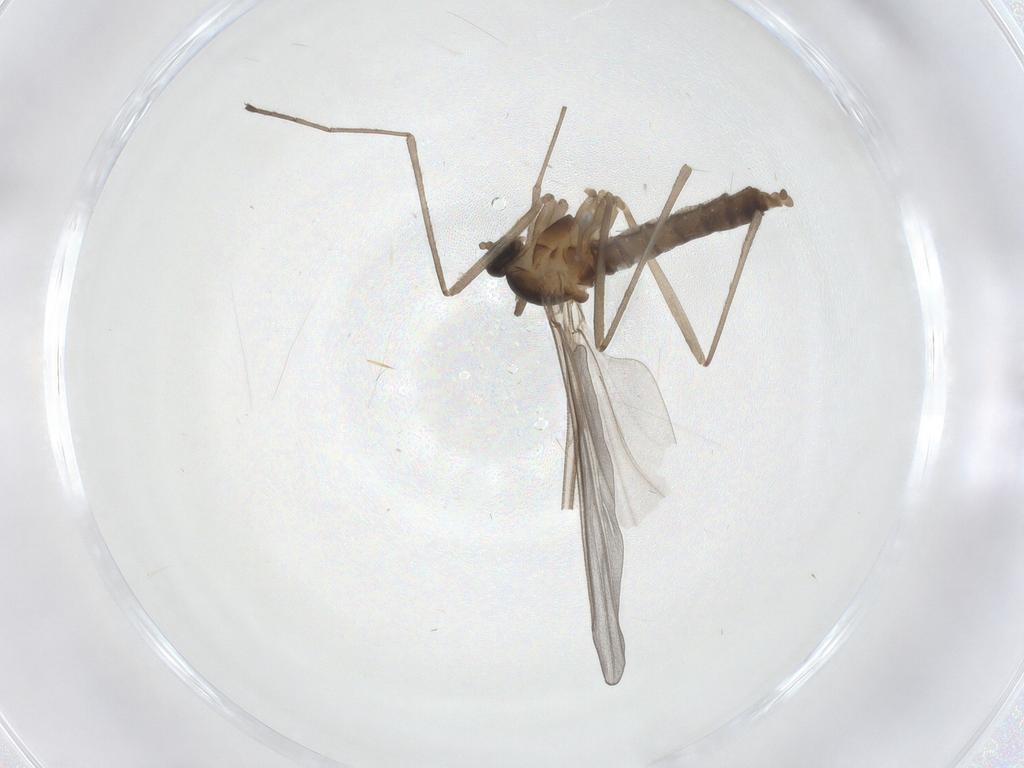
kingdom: Animalia
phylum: Arthropoda
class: Insecta
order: Diptera
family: Cecidomyiidae
